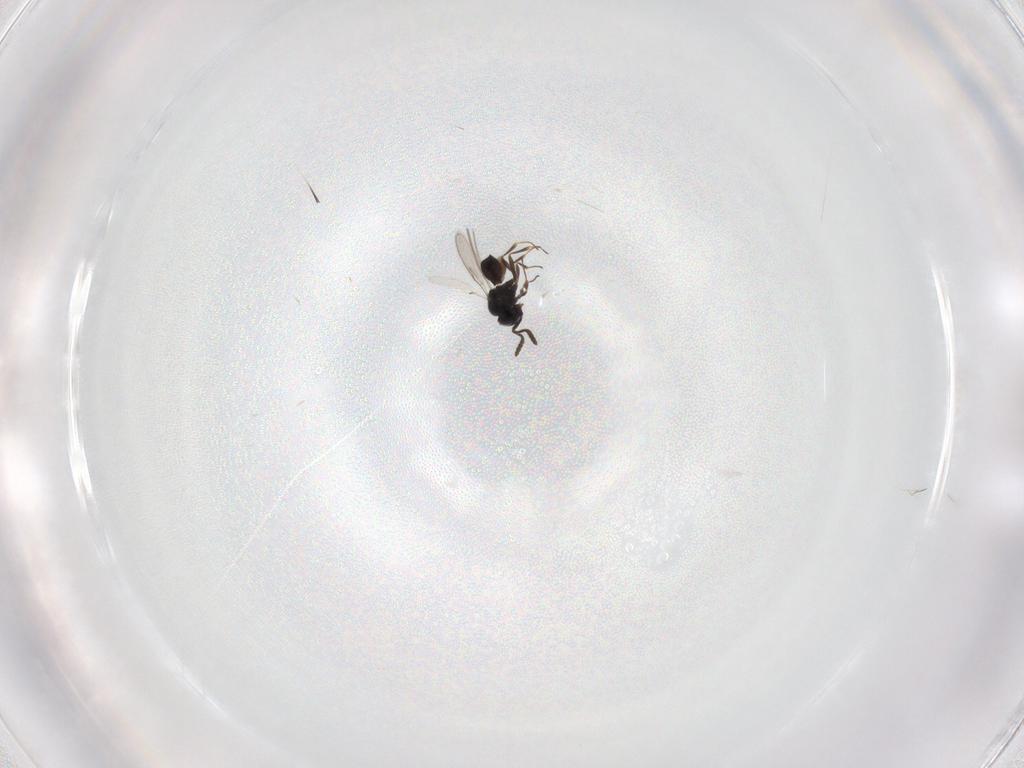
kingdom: Animalia
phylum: Arthropoda
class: Insecta
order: Hymenoptera
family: Scelionidae
